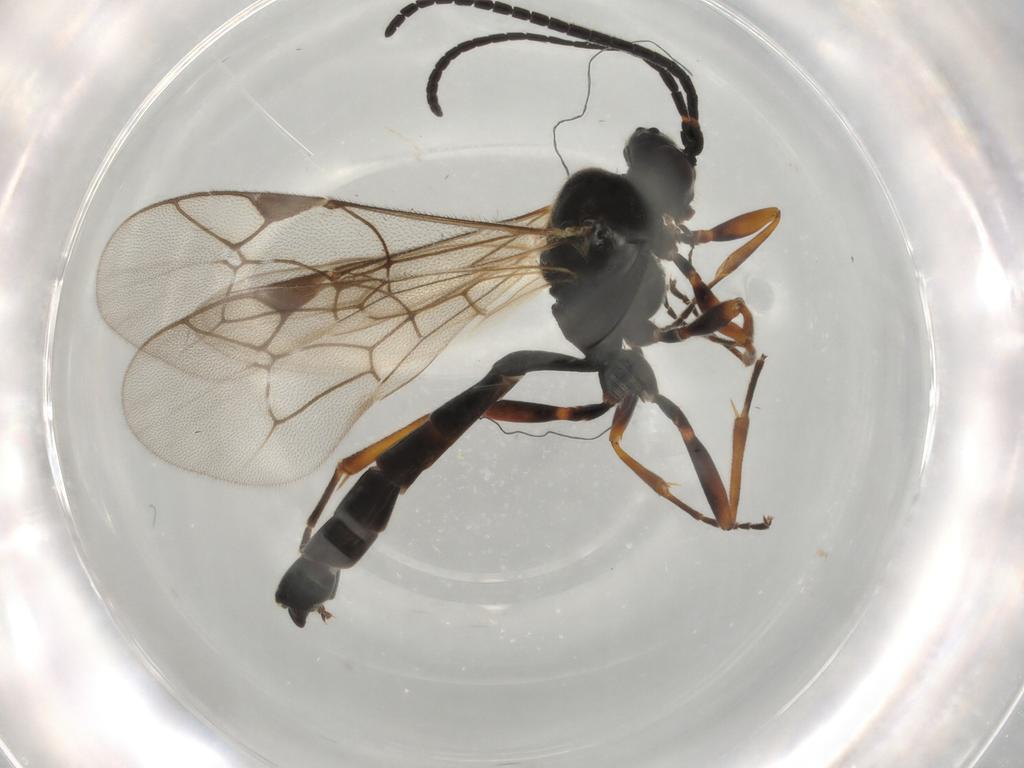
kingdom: Animalia
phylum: Arthropoda
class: Insecta
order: Hymenoptera
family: Ichneumonidae
